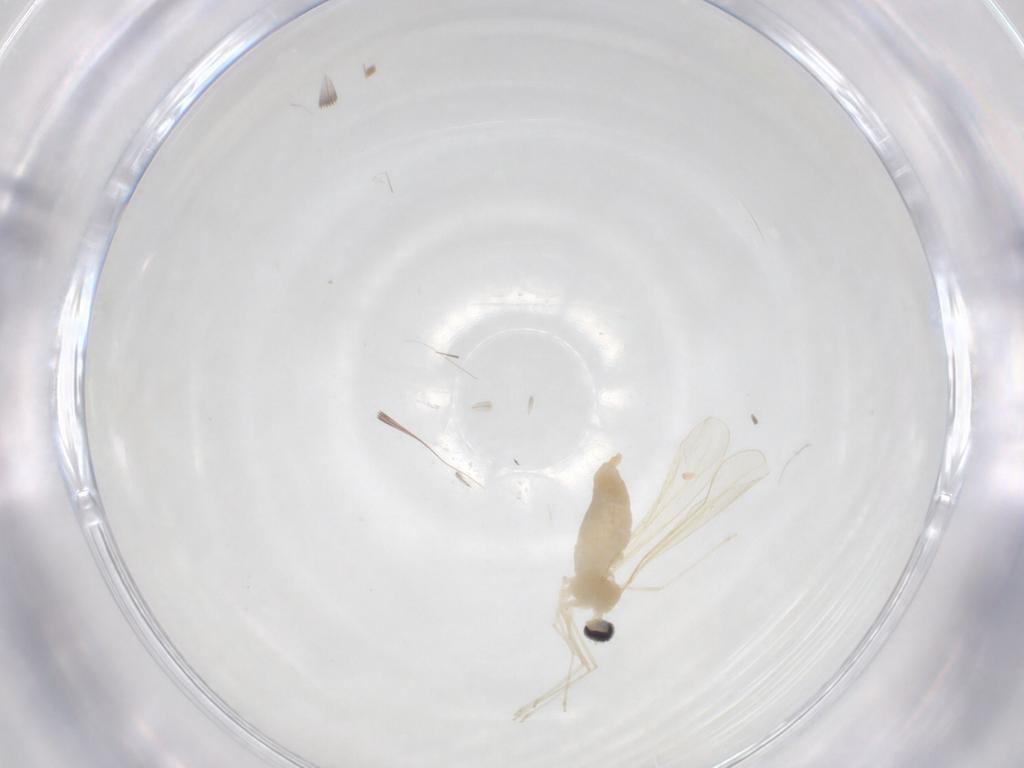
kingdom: Animalia
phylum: Arthropoda
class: Insecta
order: Diptera
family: Cecidomyiidae
